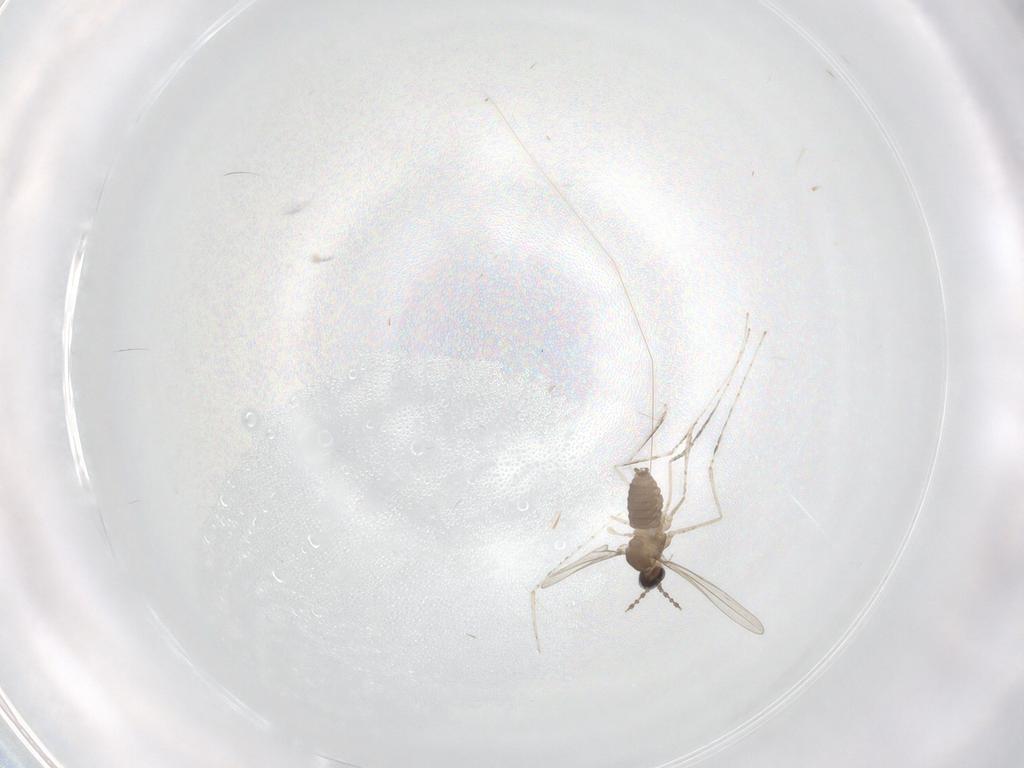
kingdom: Animalia
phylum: Arthropoda
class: Insecta
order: Diptera
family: Cecidomyiidae
